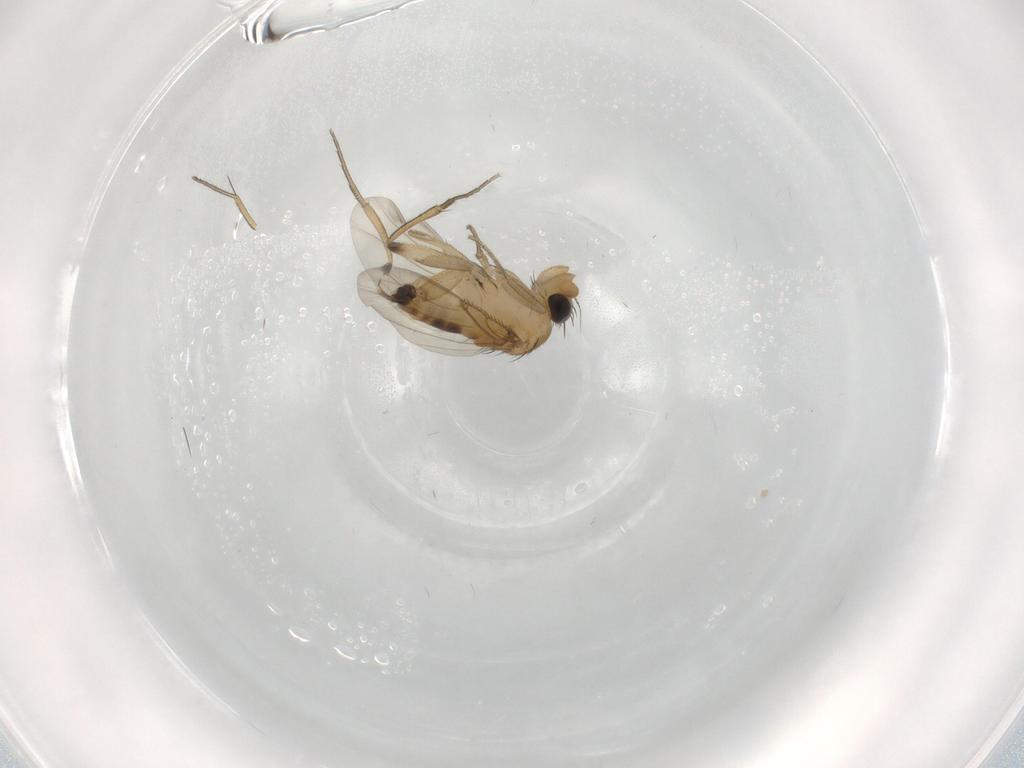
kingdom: Animalia
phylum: Arthropoda
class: Insecta
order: Diptera
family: Phoridae
